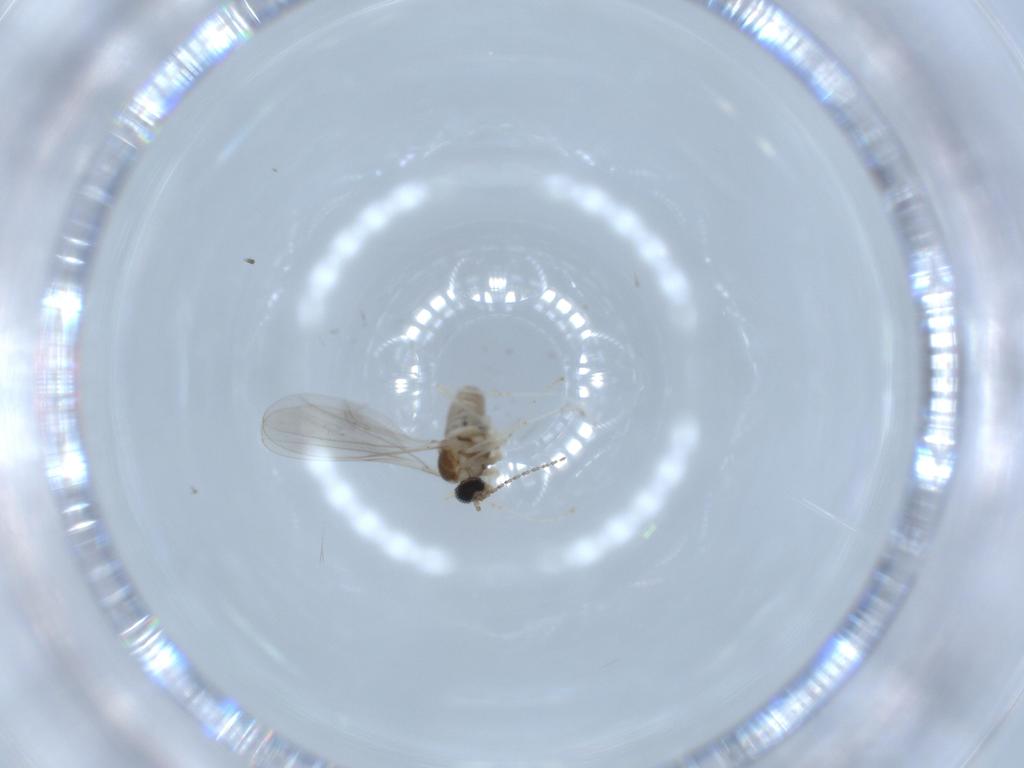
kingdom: Animalia
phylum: Arthropoda
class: Insecta
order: Diptera
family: Cecidomyiidae
